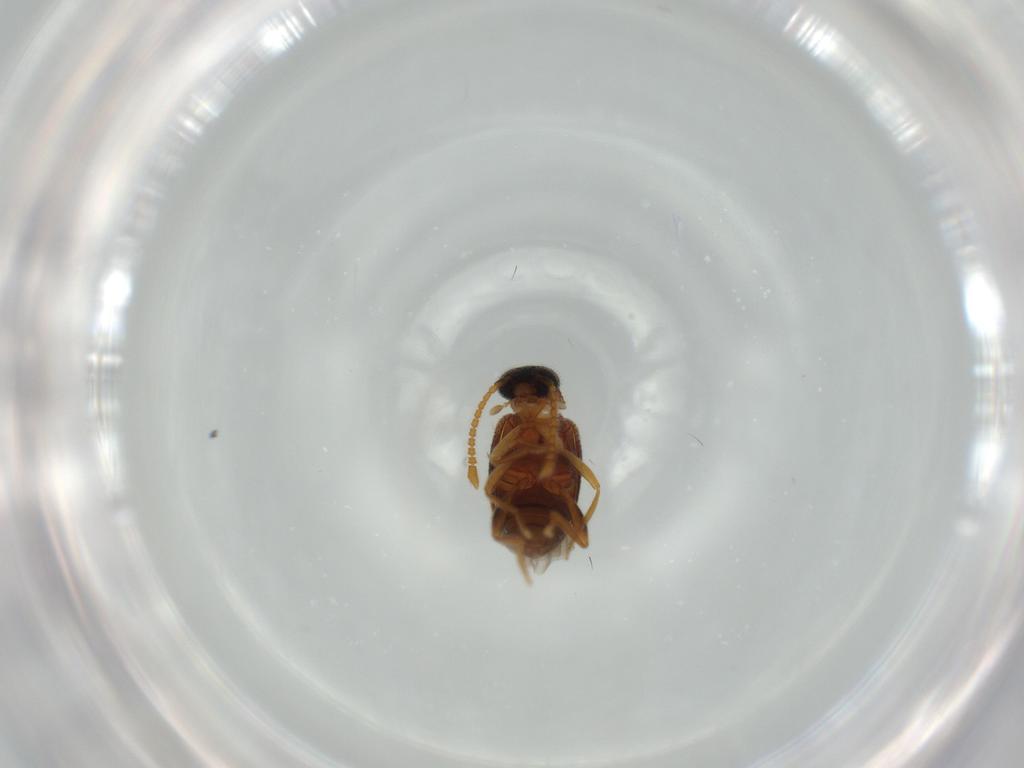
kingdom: Animalia
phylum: Arthropoda
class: Insecta
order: Coleoptera
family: Aderidae
